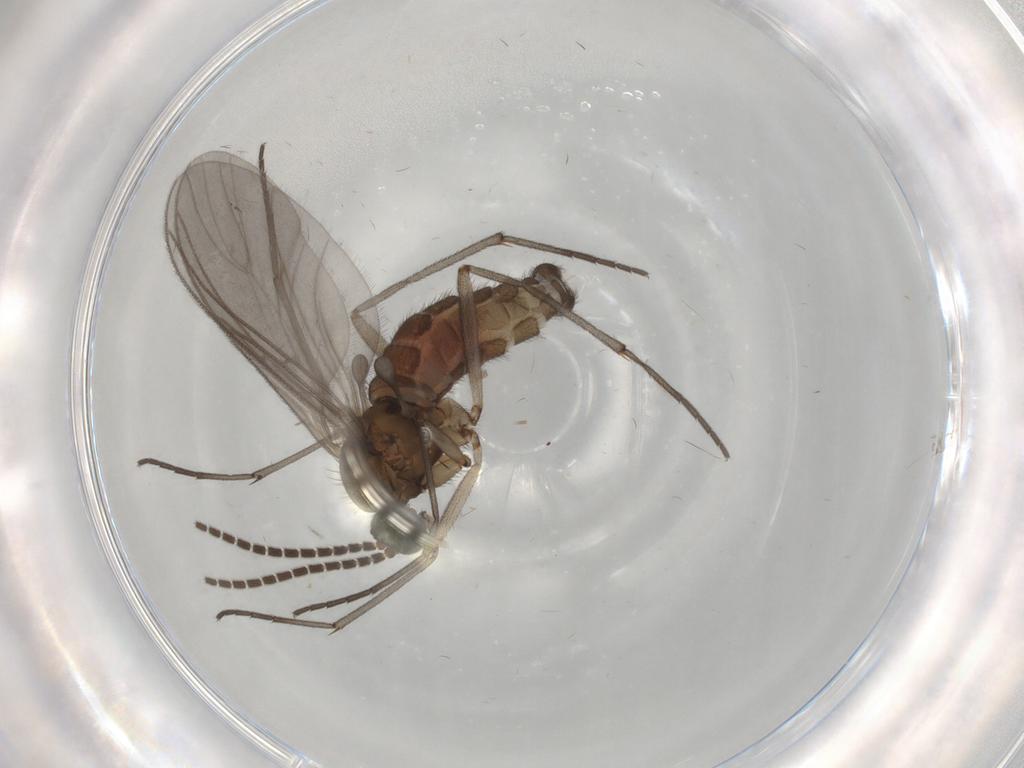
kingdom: Animalia
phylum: Arthropoda
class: Insecta
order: Diptera
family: Sciaridae
